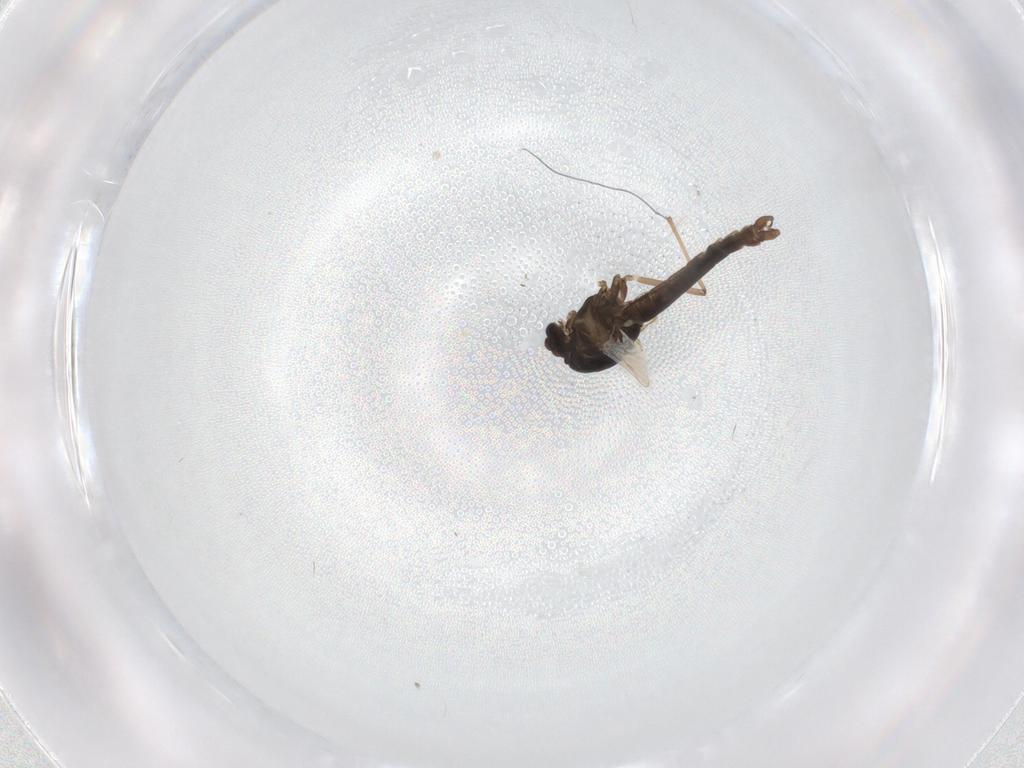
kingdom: Animalia
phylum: Arthropoda
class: Insecta
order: Diptera
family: Chironomidae
